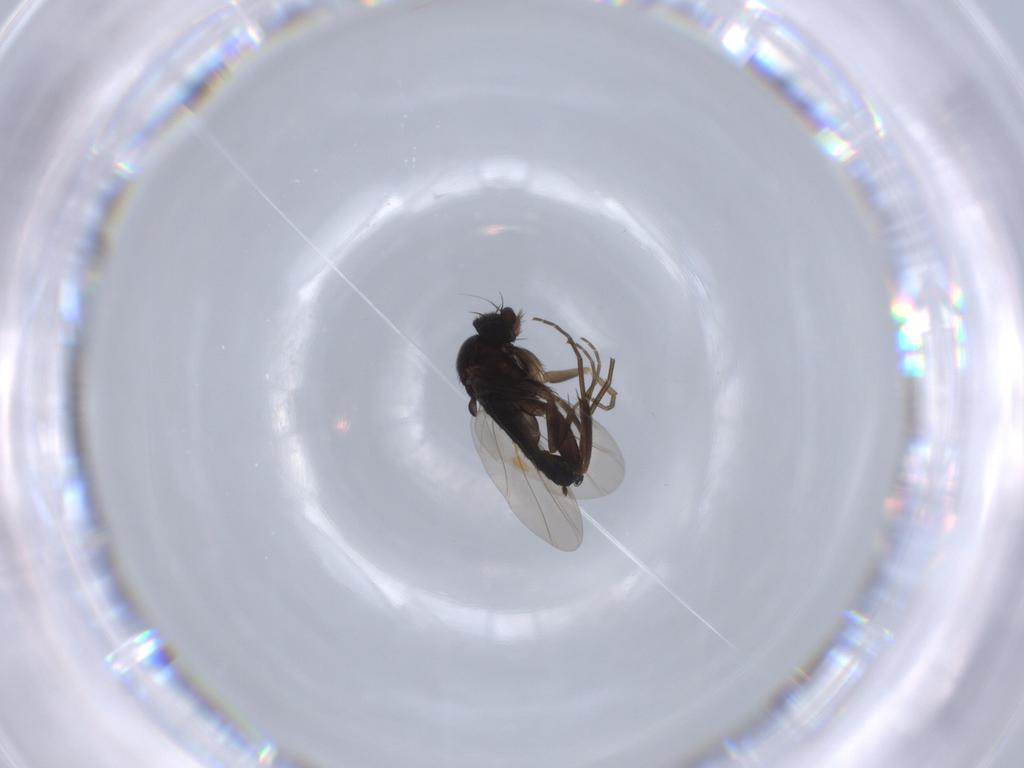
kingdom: Animalia
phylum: Arthropoda
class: Insecta
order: Diptera
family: Phoridae
